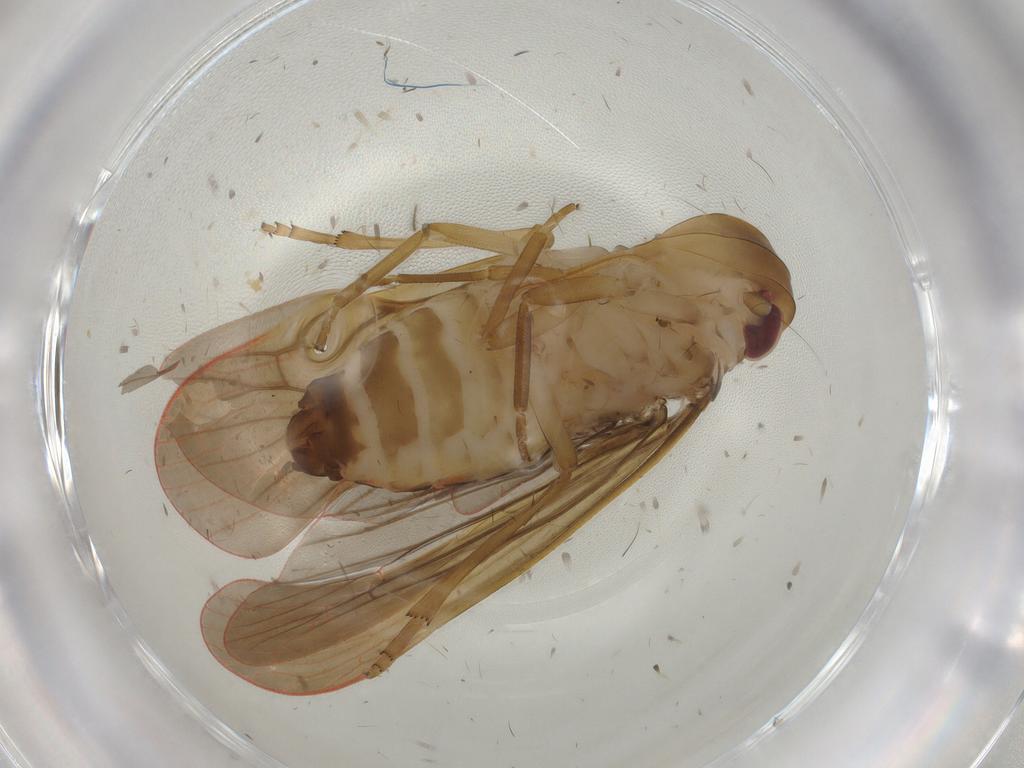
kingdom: Animalia
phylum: Arthropoda
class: Insecta
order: Hemiptera
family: Achilidae
